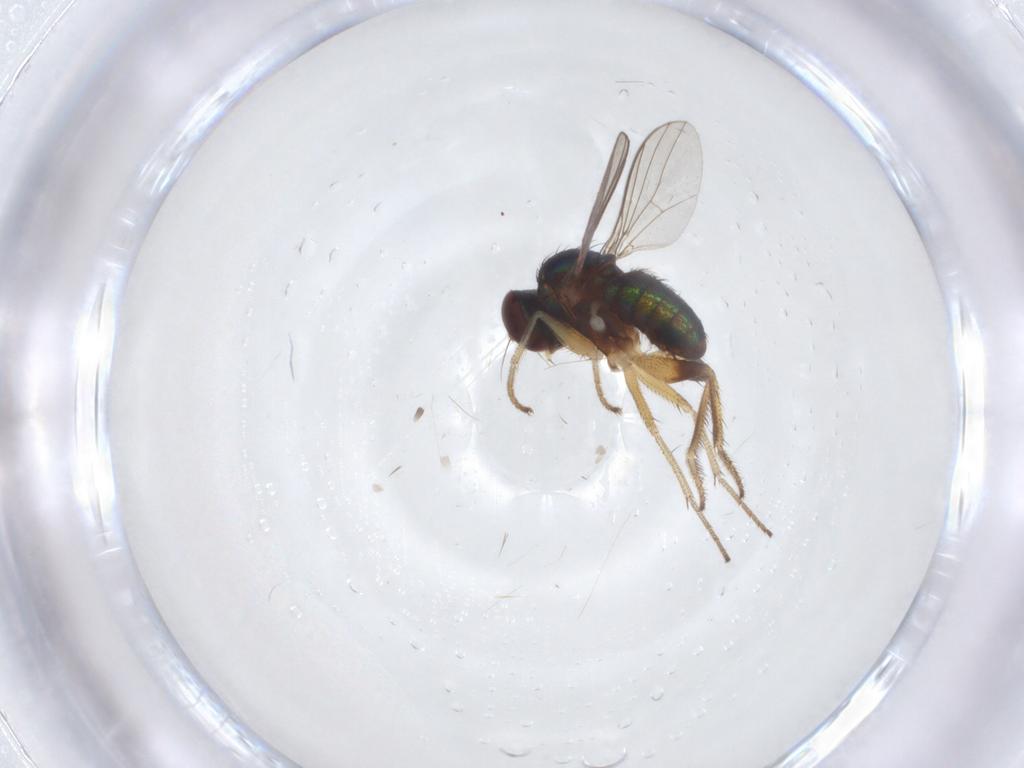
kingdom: Animalia
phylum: Arthropoda
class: Insecta
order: Diptera
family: Dolichopodidae
